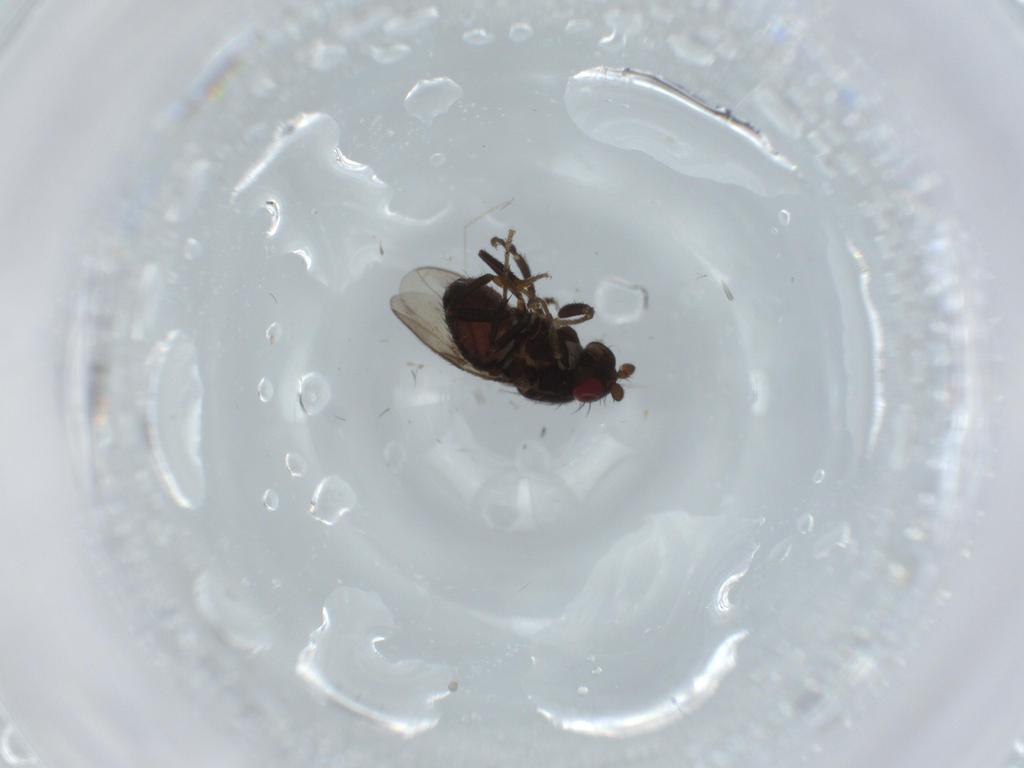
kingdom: Animalia
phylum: Arthropoda
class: Insecta
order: Diptera
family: Sphaeroceridae
